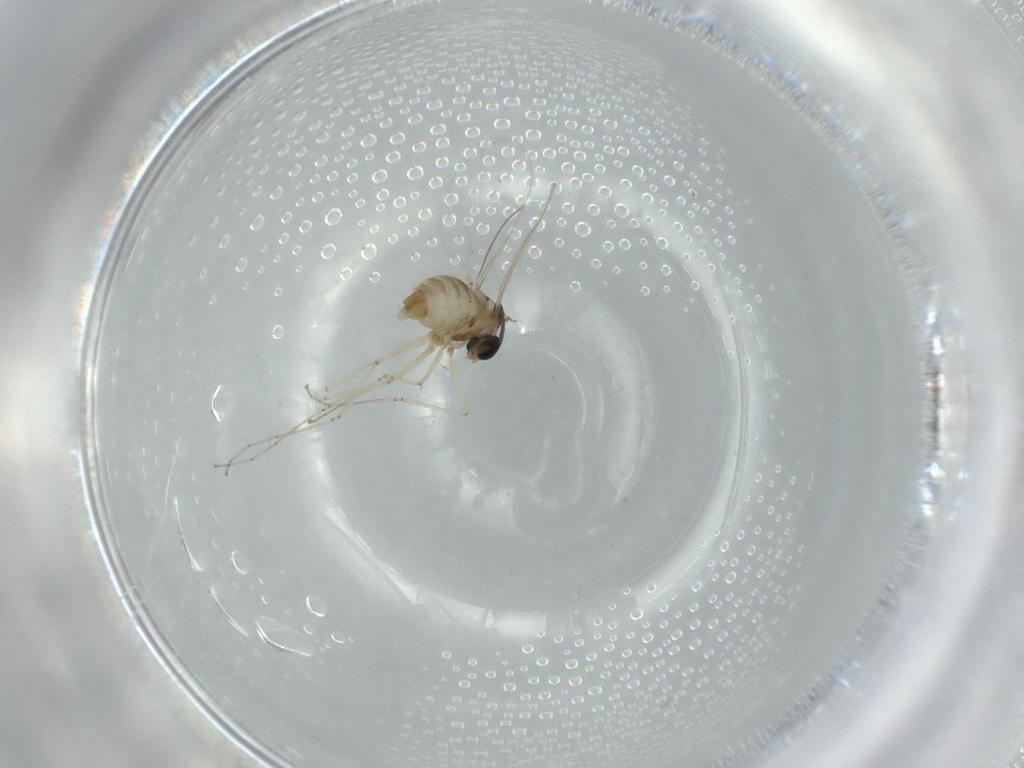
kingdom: Animalia
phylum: Arthropoda
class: Insecta
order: Diptera
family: Cecidomyiidae
